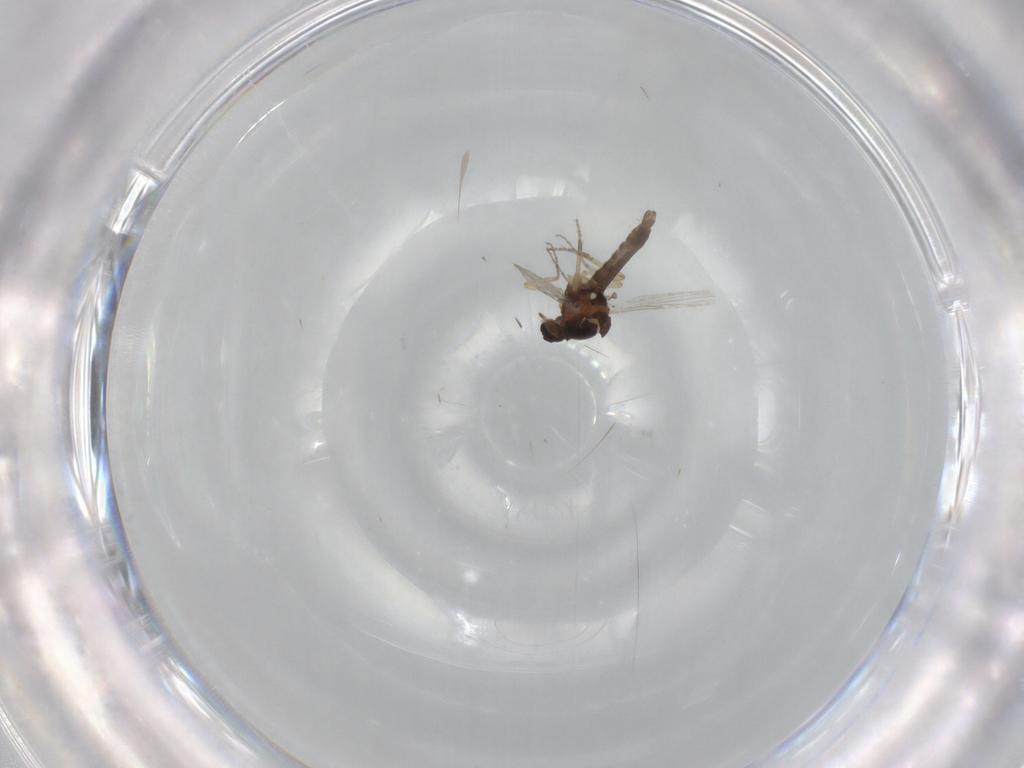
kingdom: Animalia
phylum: Arthropoda
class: Insecta
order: Diptera
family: Ceratopogonidae
